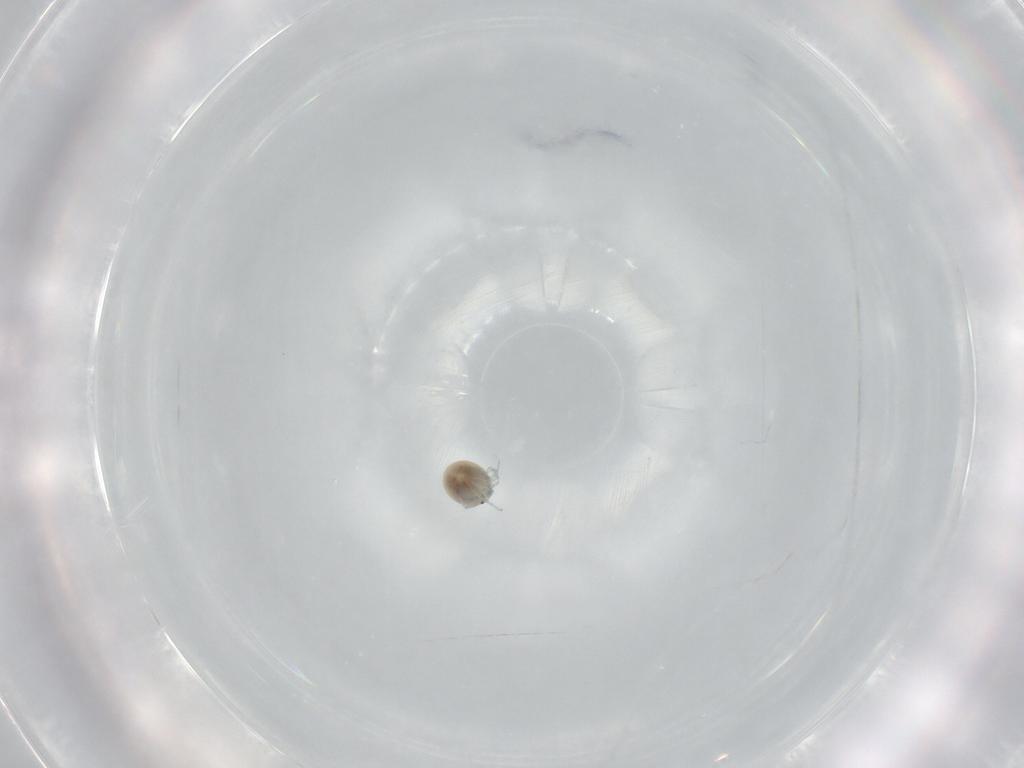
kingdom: Animalia
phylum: Arthropoda
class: Arachnida
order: Trombidiformes
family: Oxidae
